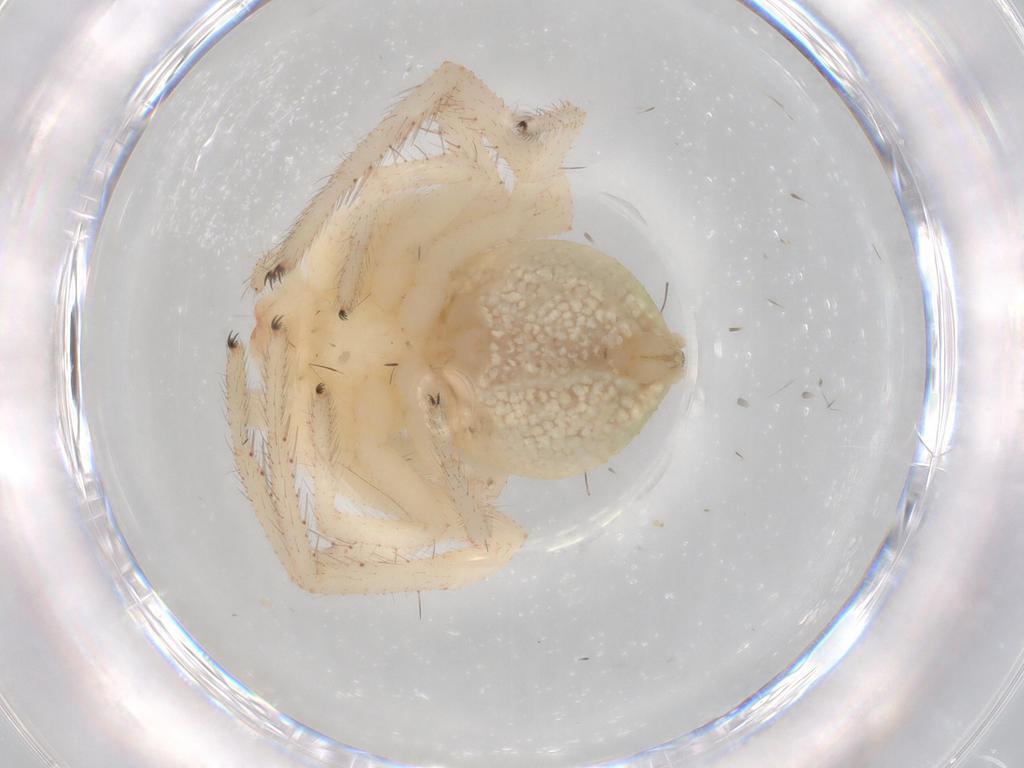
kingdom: Animalia
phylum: Arthropoda
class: Arachnida
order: Araneae
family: Thomisidae
